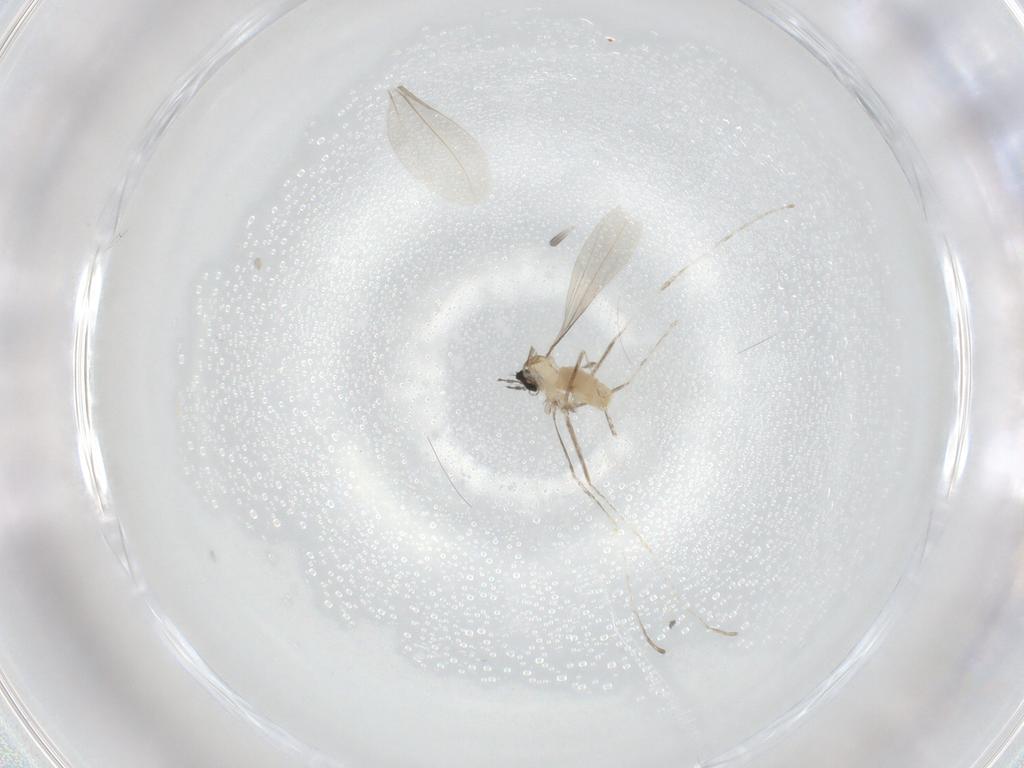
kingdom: Animalia
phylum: Arthropoda
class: Insecta
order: Diptera
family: Cecidomyiidae
